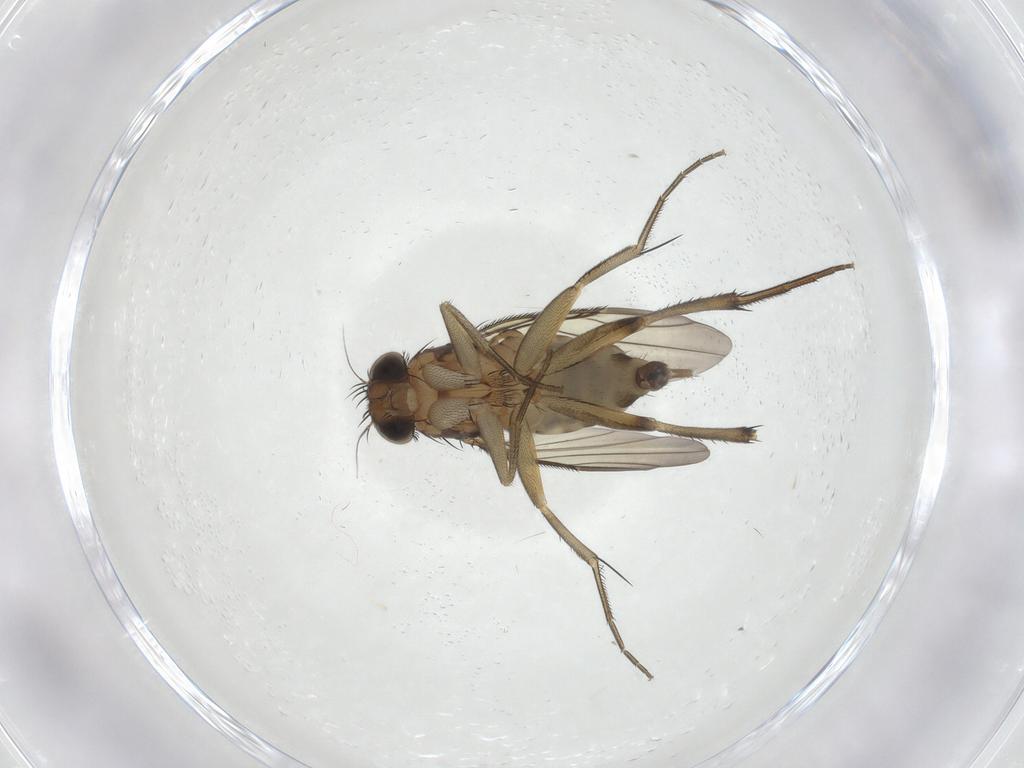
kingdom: Animalia
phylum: Arthropoda
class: Insecta
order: Diptera
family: Phoridae
